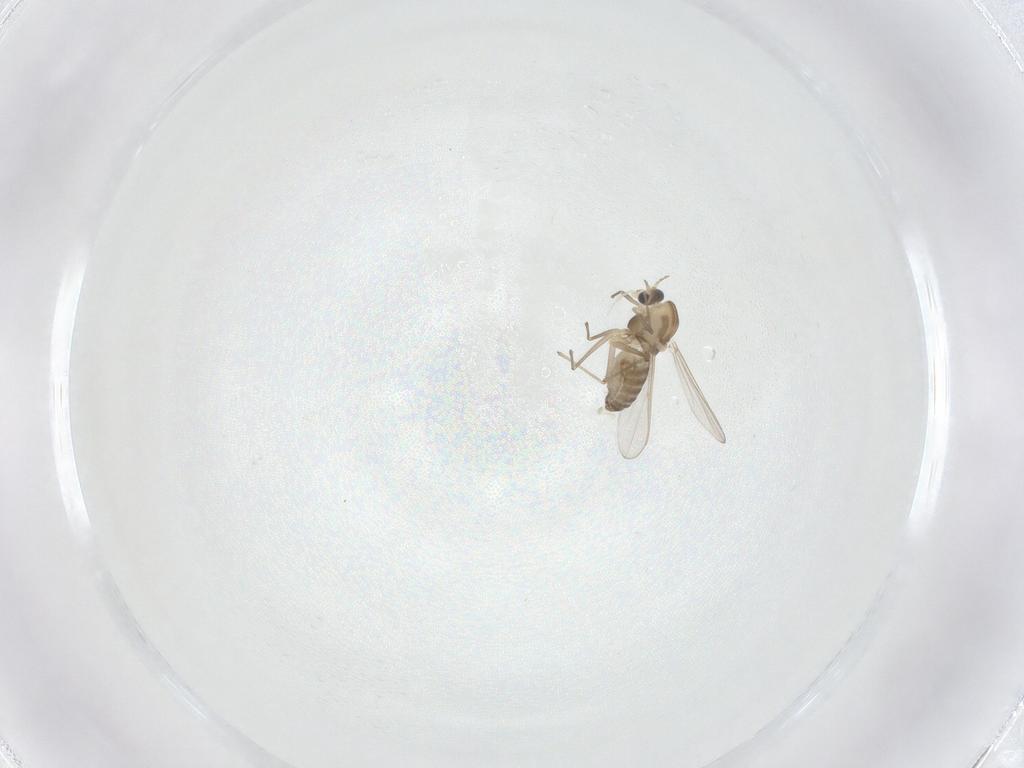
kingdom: Animalia
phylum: Arthropoda
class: Insecta
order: Diptera
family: Chironomidae
